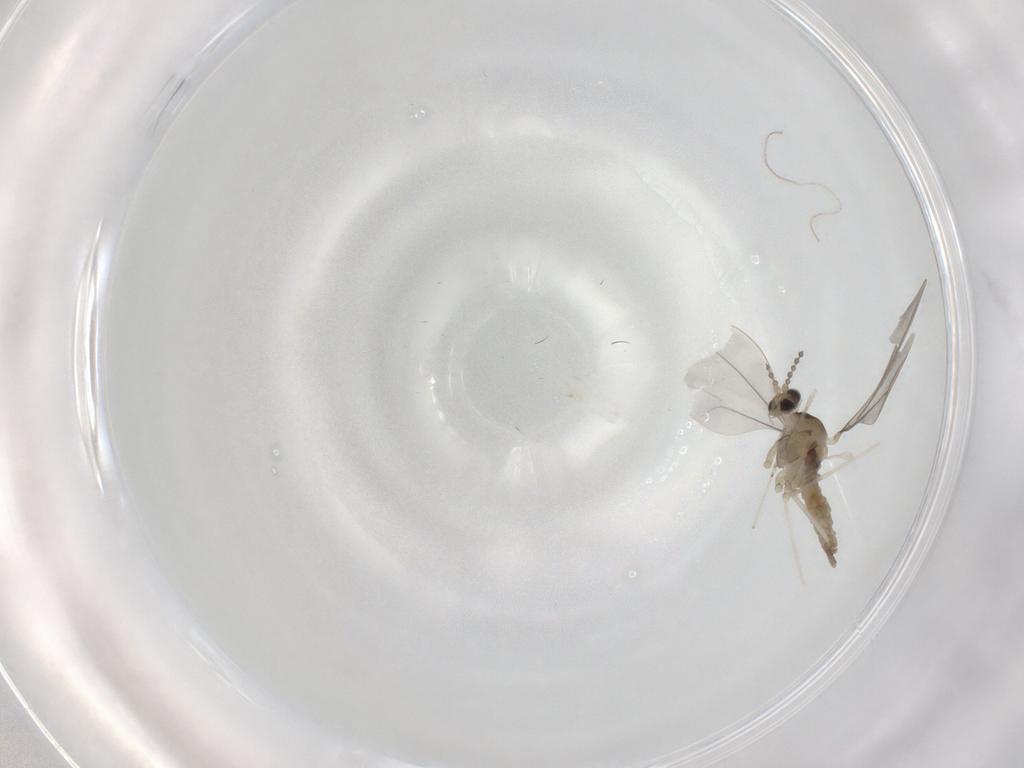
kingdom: Animalia
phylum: Arthropoda
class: Insecta
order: Diptera
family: Cecidomyiidae
